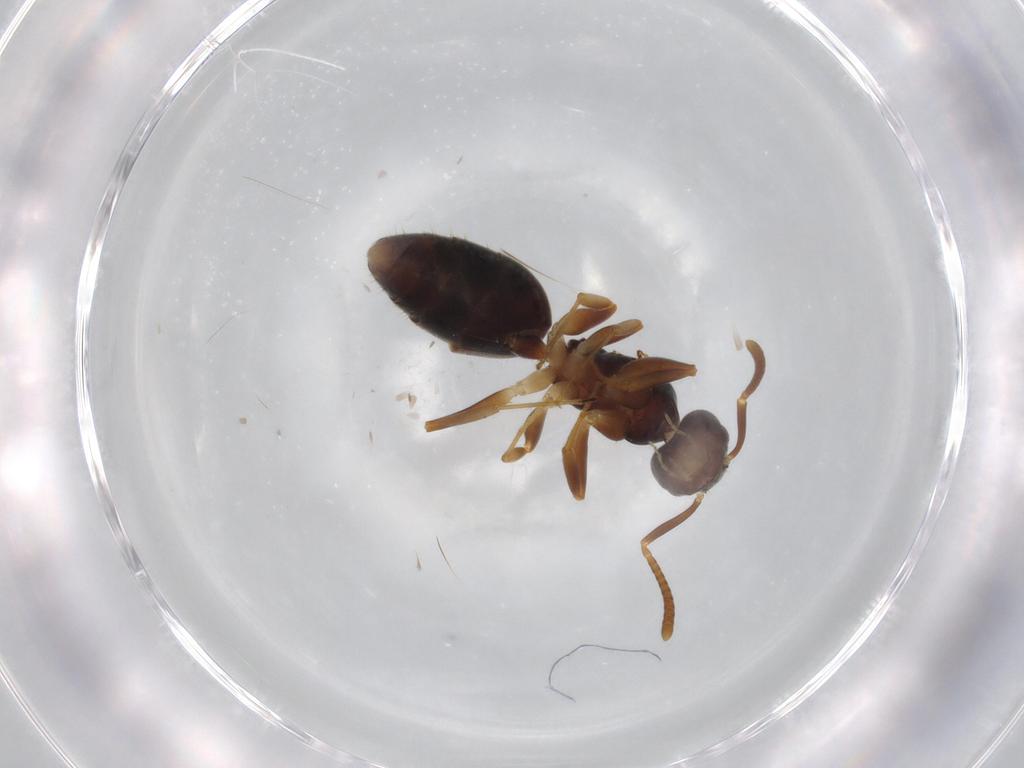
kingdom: Animalia
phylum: Arthropoda
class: Insecta
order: Hymenoptera
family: Formicidae
